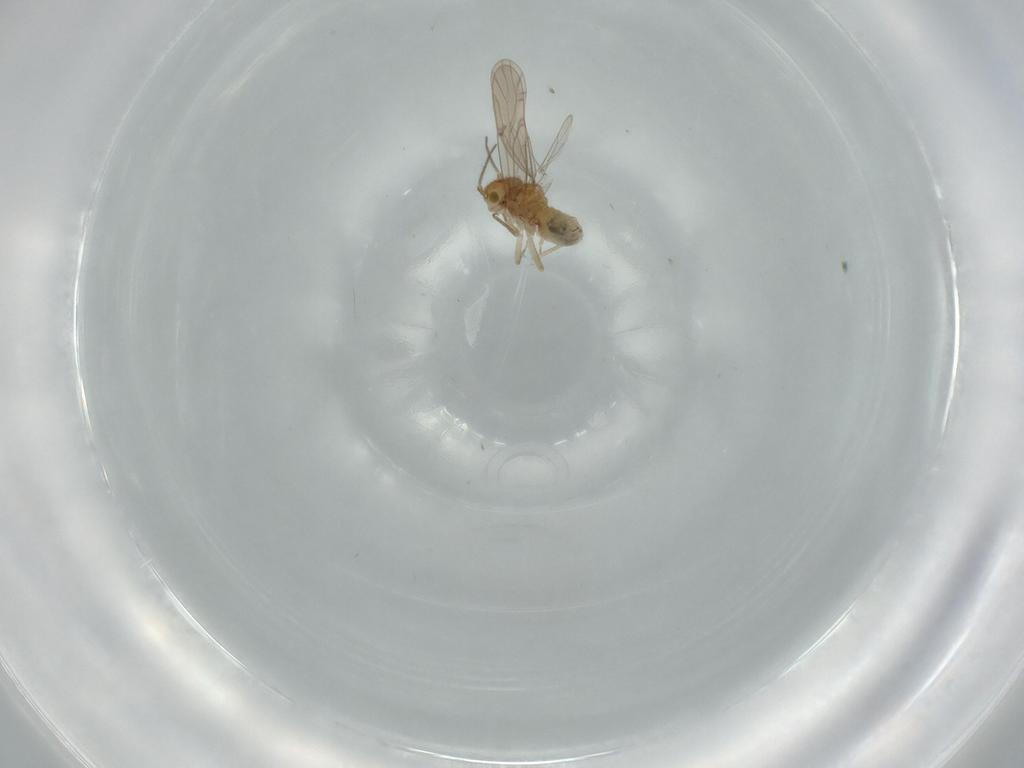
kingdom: Animalia
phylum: Arthropoda
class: Insecta
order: Psocodea
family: Ectopsocidae
